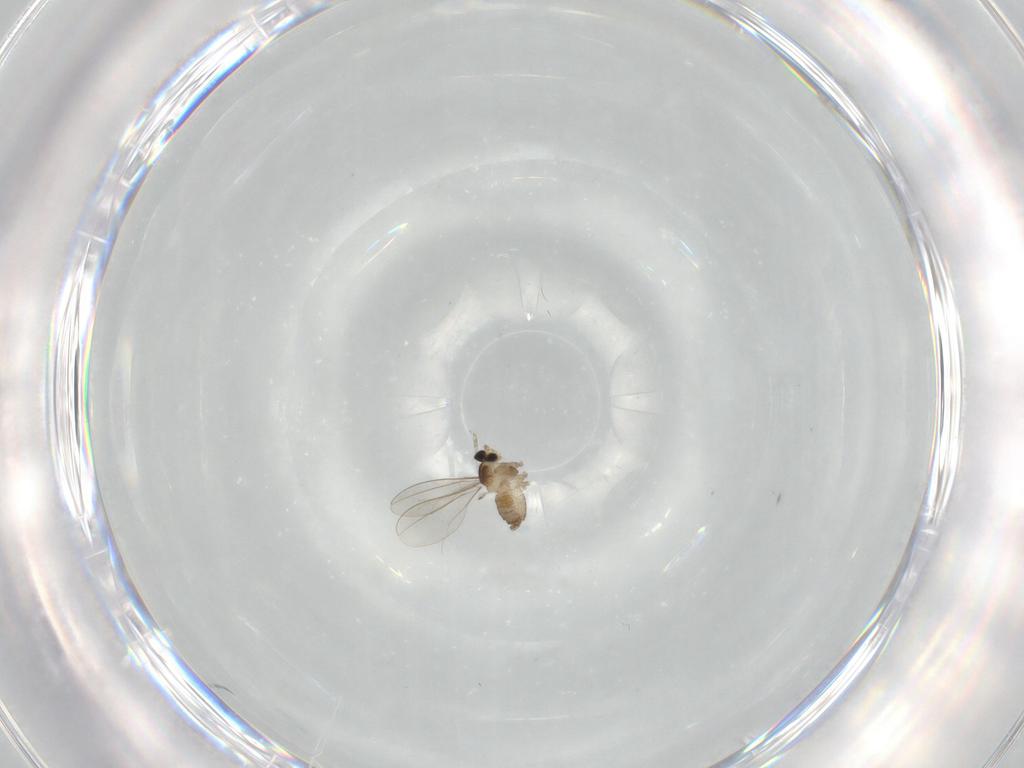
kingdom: Animalia
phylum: Arthropoda
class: Insecta
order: Diptera
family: Cecidomyiidae
